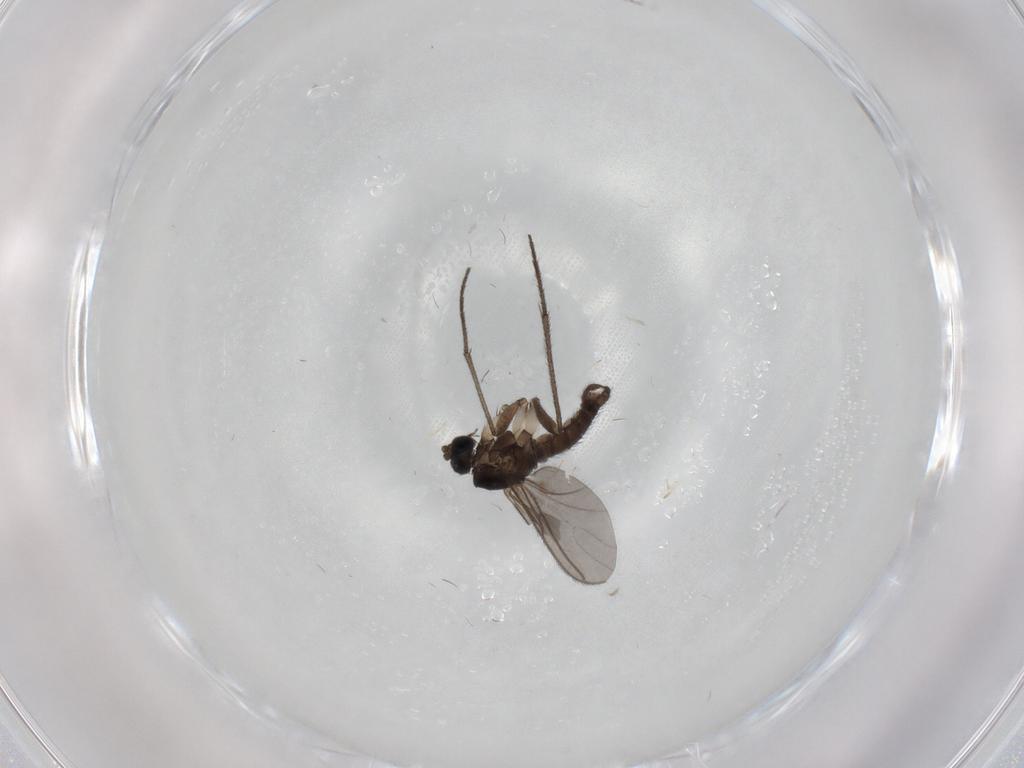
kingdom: Animalia
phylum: Arthropoda
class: Insecta
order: Diptera
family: Sciaridae
